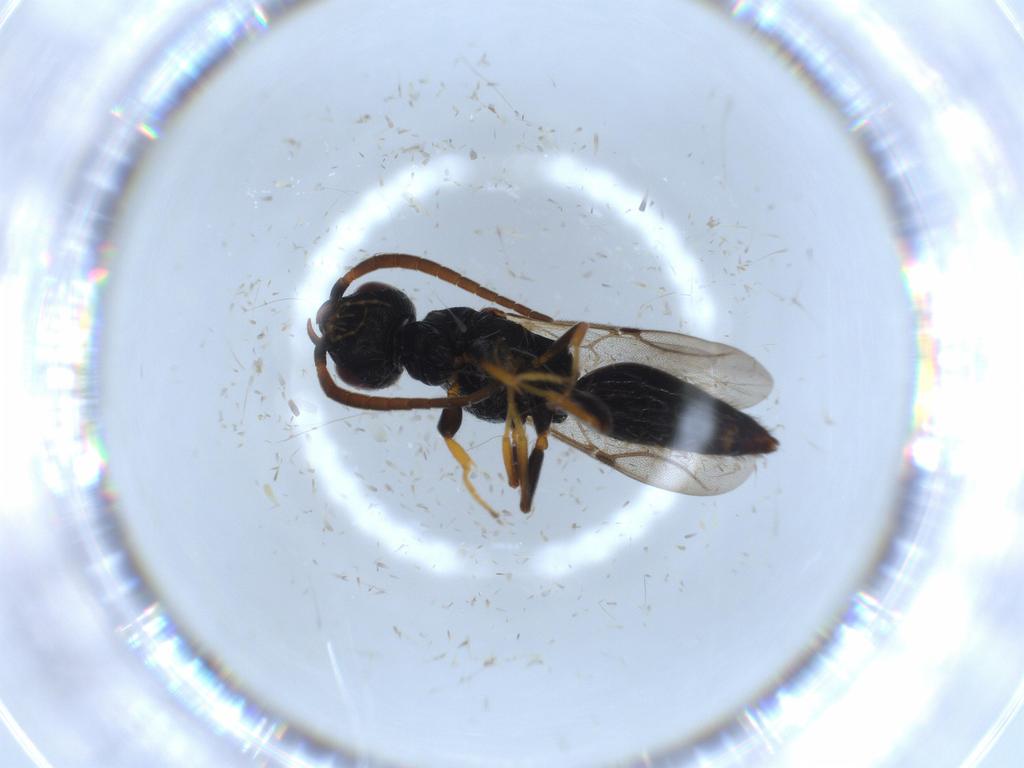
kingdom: Animalia
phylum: Arthropoda
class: Insecta
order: Hymenoptera
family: Bethylidae
